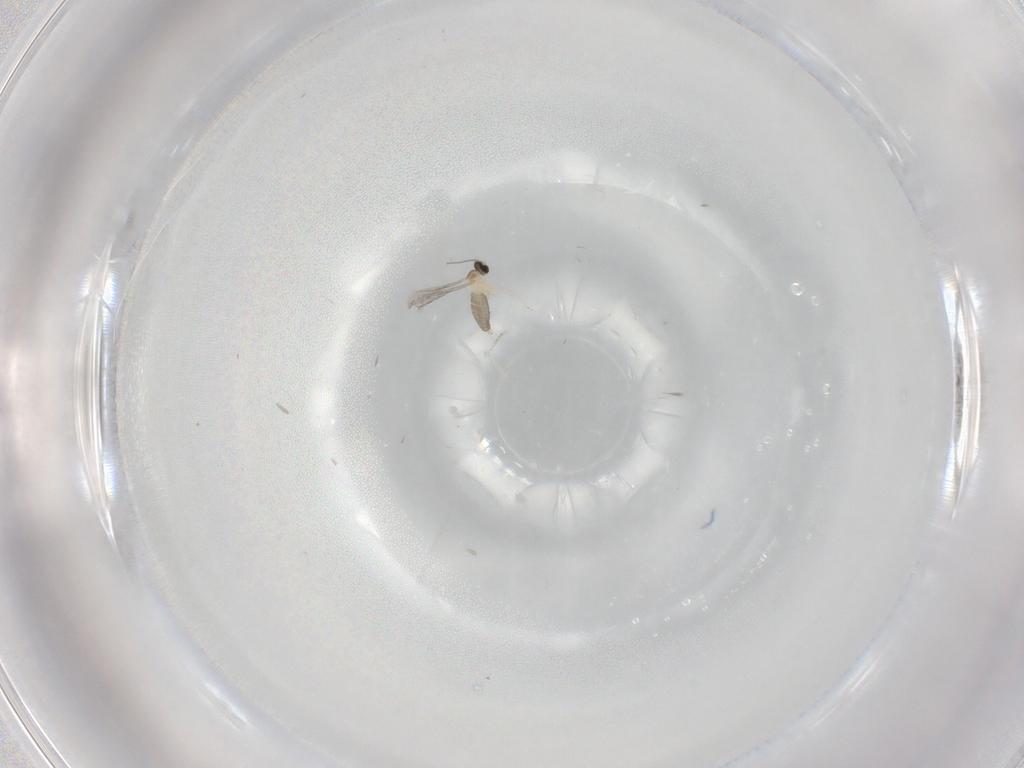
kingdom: Animalia
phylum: Arthropoda
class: Insecta
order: Diptera
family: Cecidomyiidae
